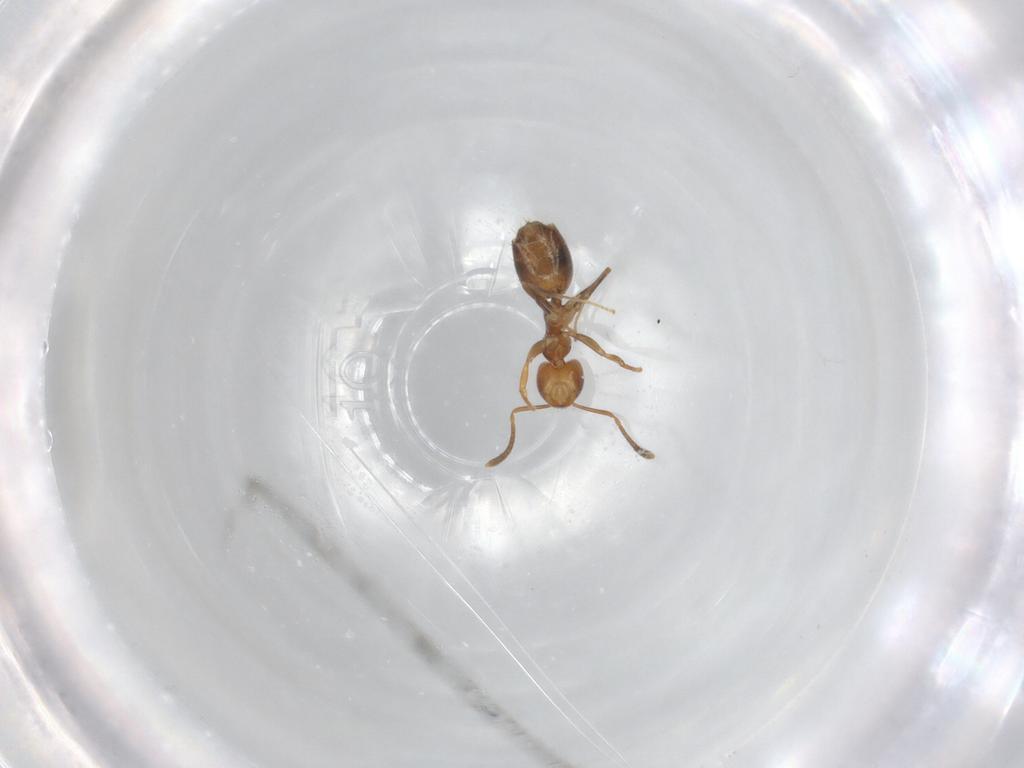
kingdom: Animalia
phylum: Arthropoda
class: Insecta
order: Hymenoptera
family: Formicidae
